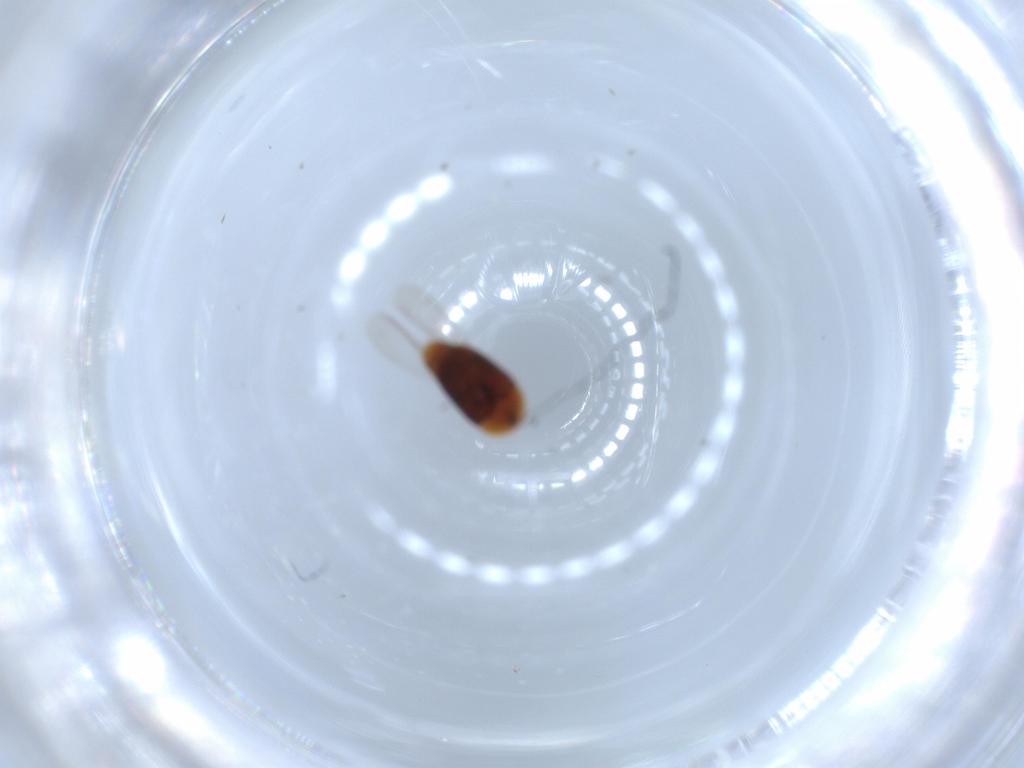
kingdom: Animalia
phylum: Arthropoda
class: Insecta
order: Coleoptera
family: Corylophidae
